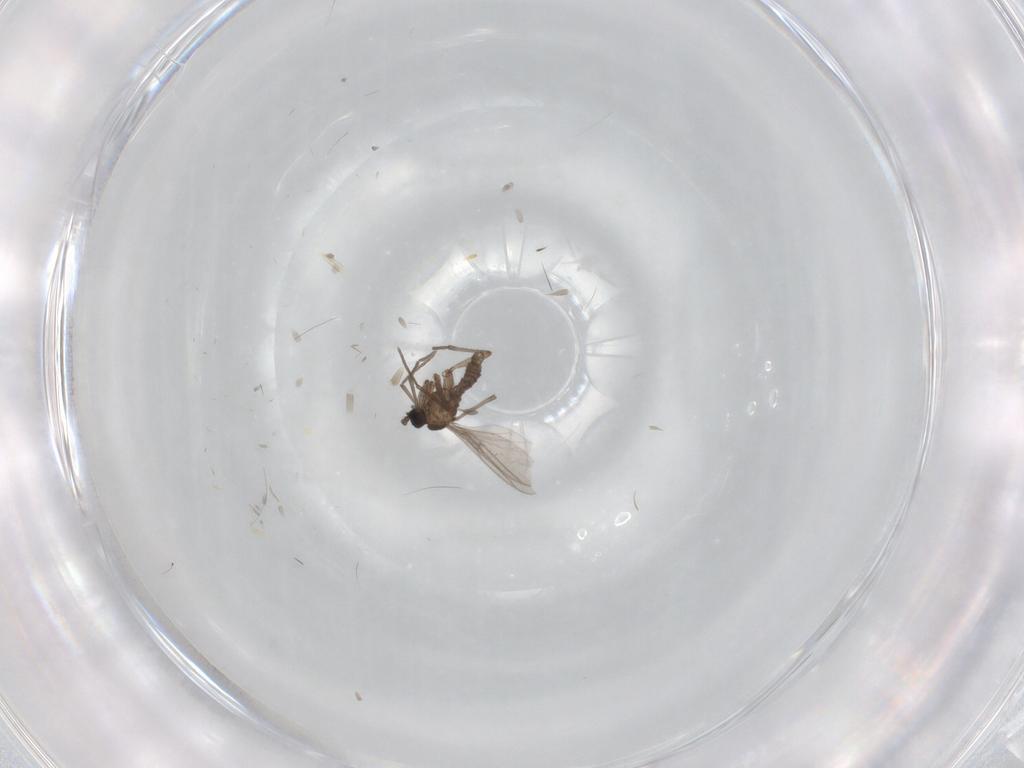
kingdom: Animalia
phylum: Arthropoda
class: Insecta
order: Diptera
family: Sciaridae
